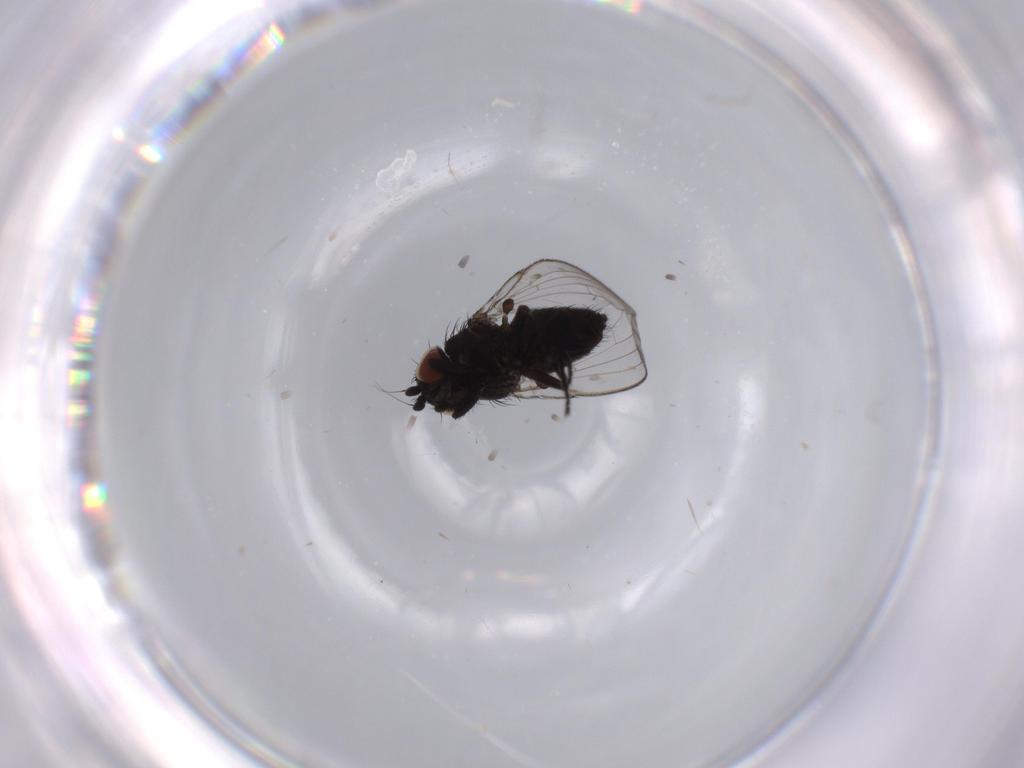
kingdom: Animalia
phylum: Arthropoda
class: Insecta
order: Diptera
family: Milichiidae
